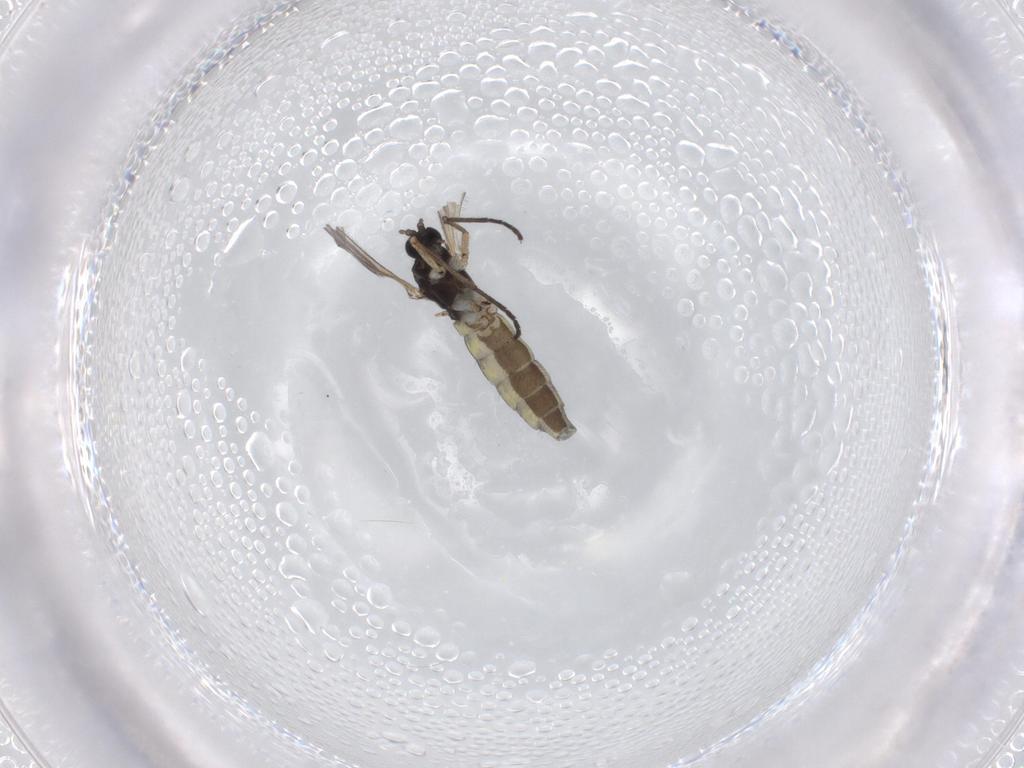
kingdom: Animalia
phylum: Arthropoda
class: Insecta
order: Diptera
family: Sciaridae
